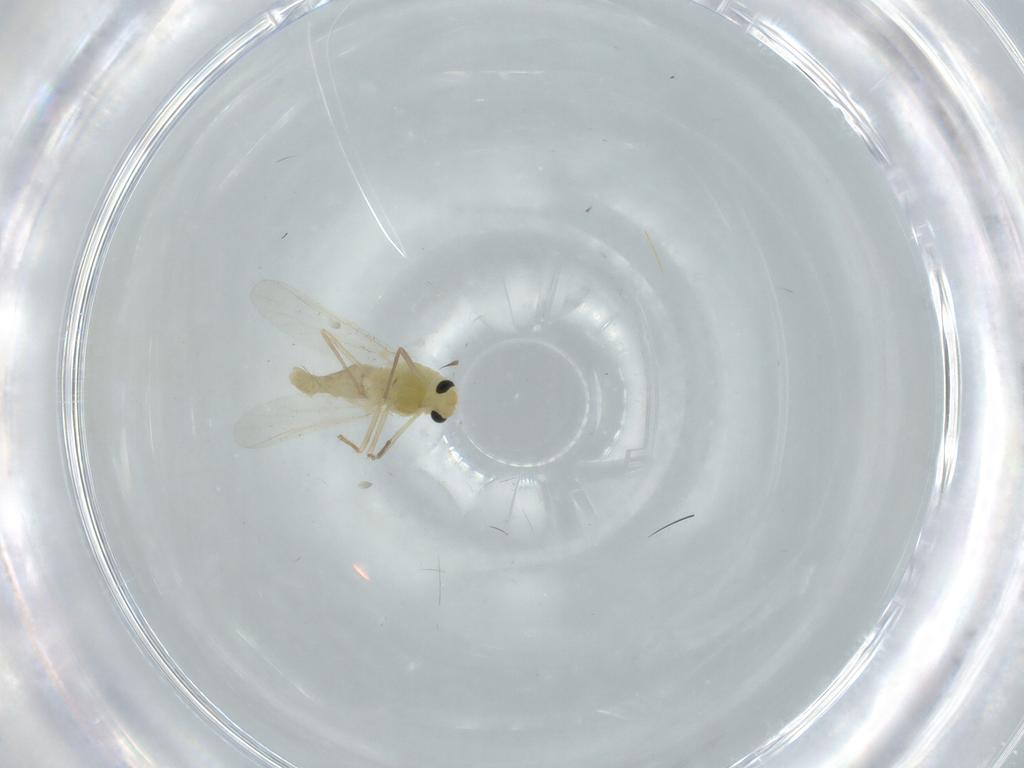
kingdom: Animalia
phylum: Arthropoda
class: Insecta
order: Diptera
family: Chironomidae
